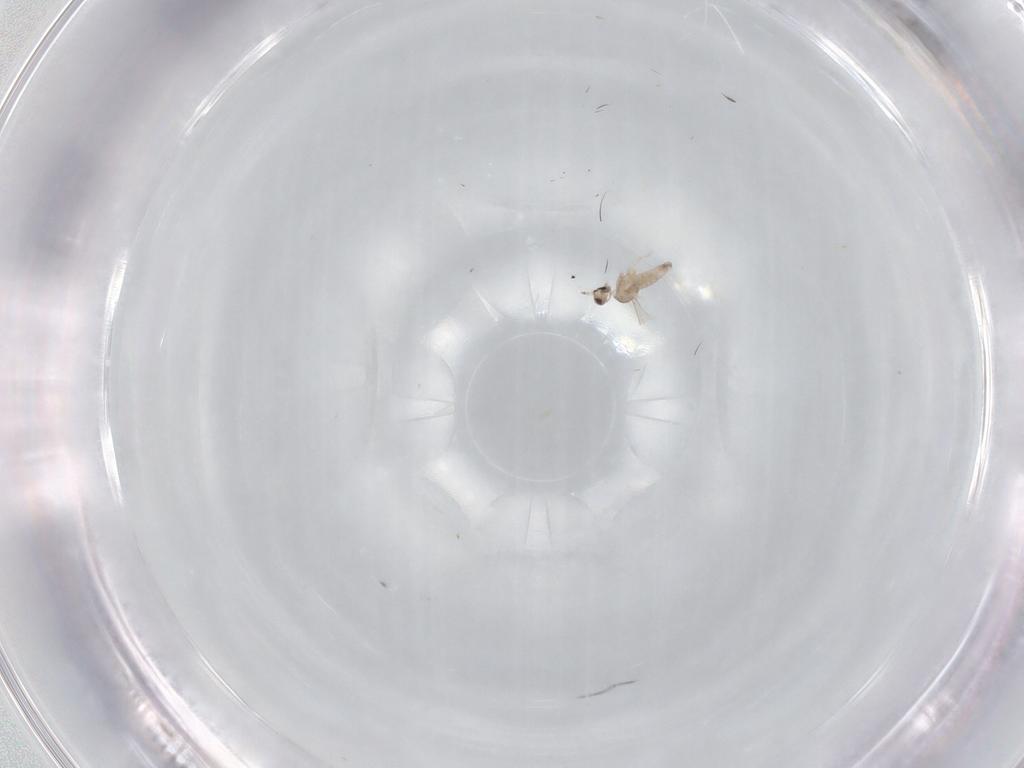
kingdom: Animalia
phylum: Arthropoda
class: Insecta
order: Diptera
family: Cecidomyiidae
